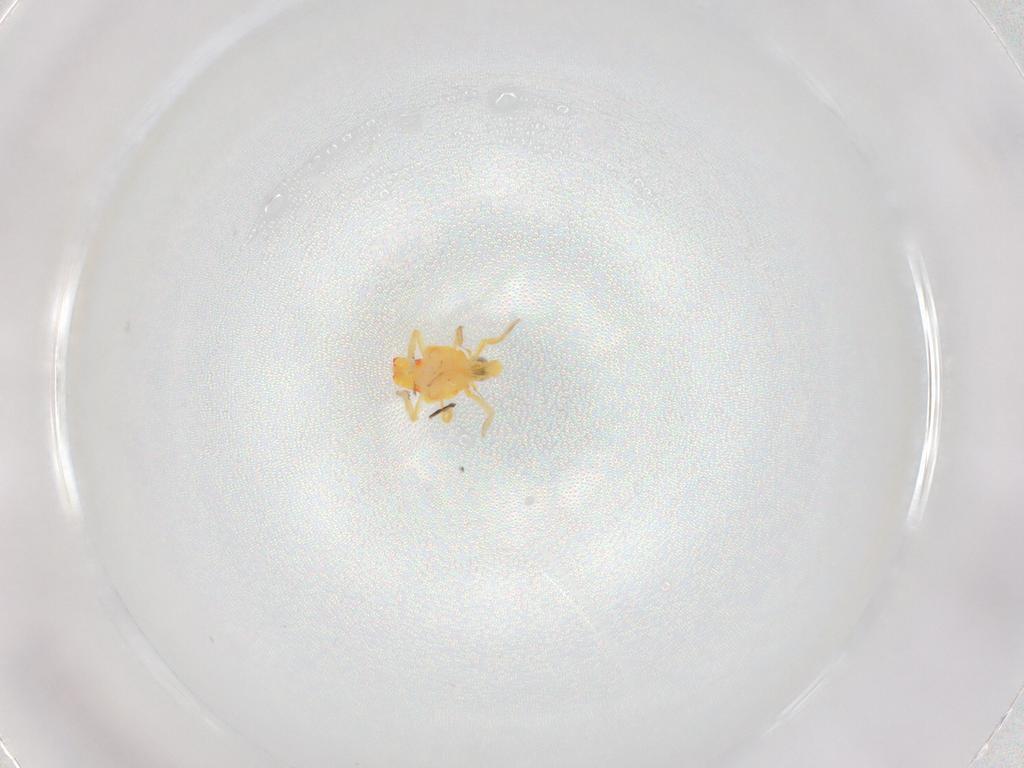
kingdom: Animalia
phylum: Arthropoda
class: Insecta
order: Hemiptera
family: Tropiduchidae
